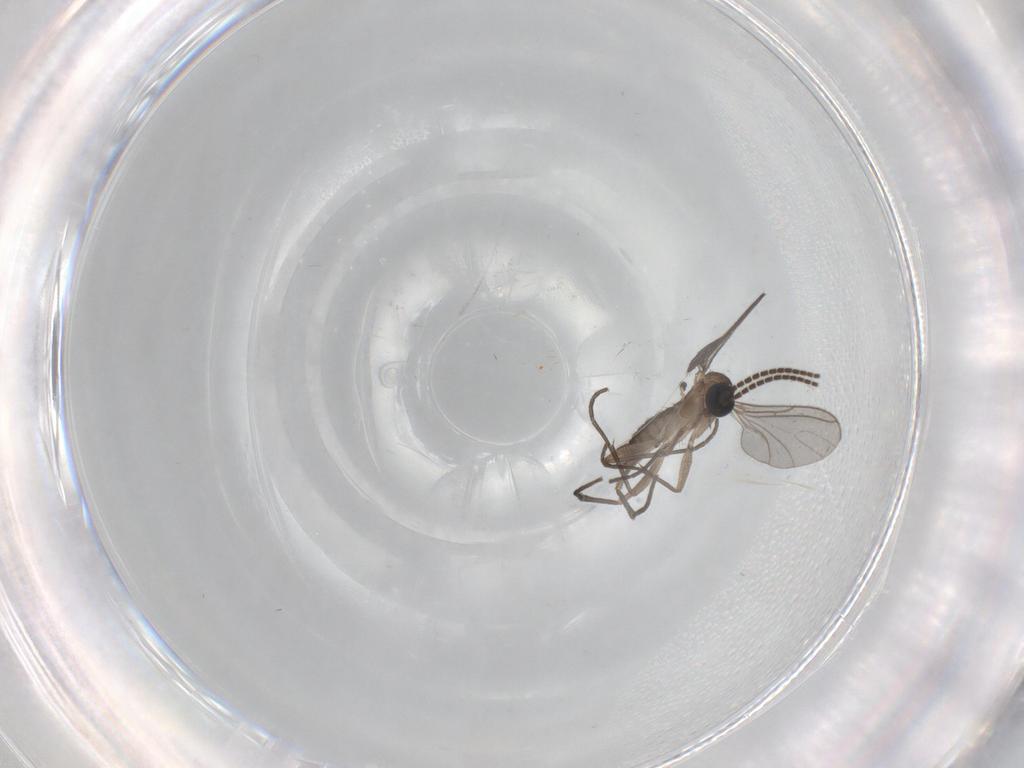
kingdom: Animalia
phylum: Arthropoda
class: Insecta
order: Diptera
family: Sciaridae
